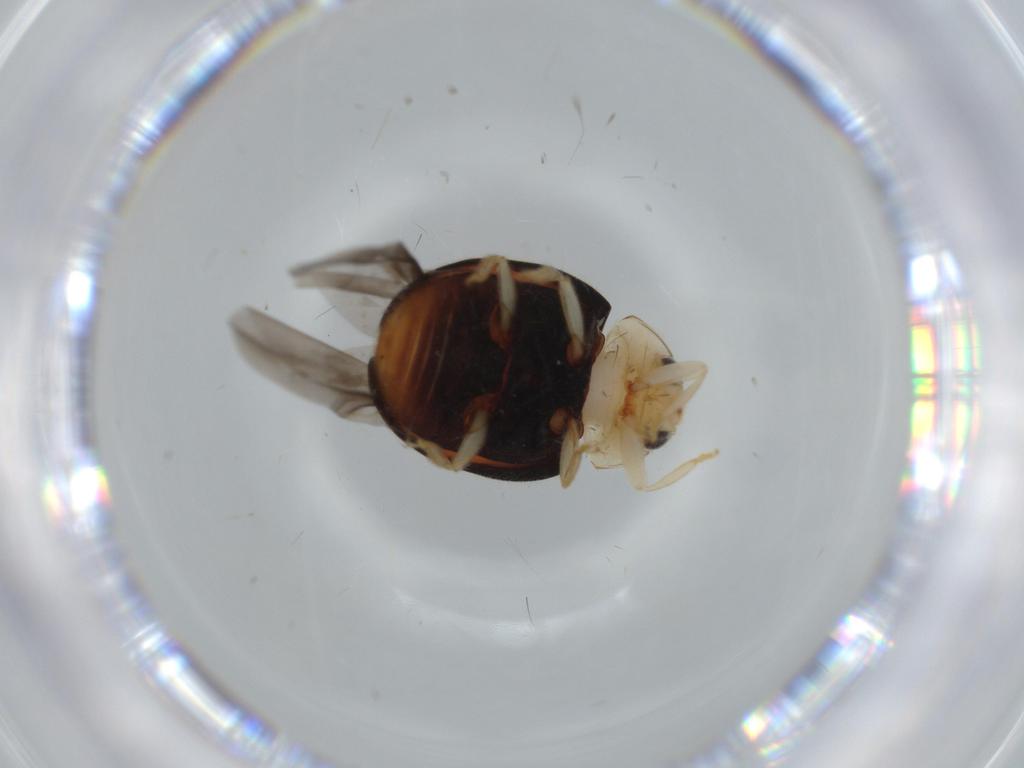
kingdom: Animalia
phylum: Arthropoda
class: Insecta
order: Coleoptera
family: Coccinellidae
